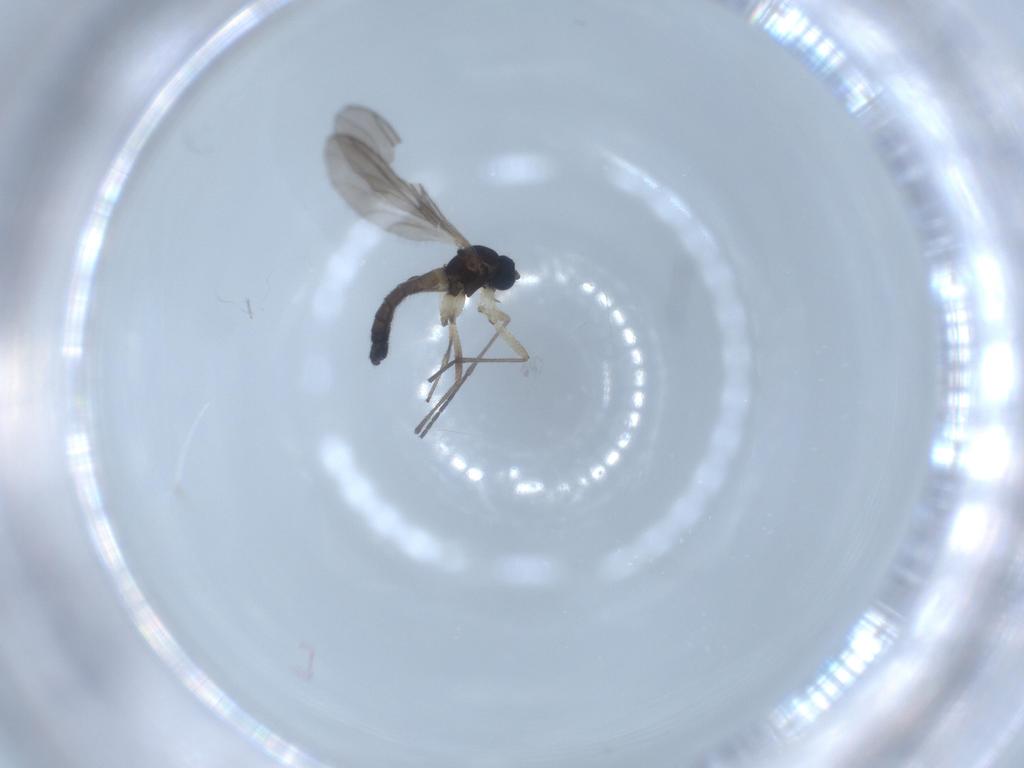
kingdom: Animalia
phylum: Arthropoda
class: Insecta
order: Diptera
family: Sciaridae
